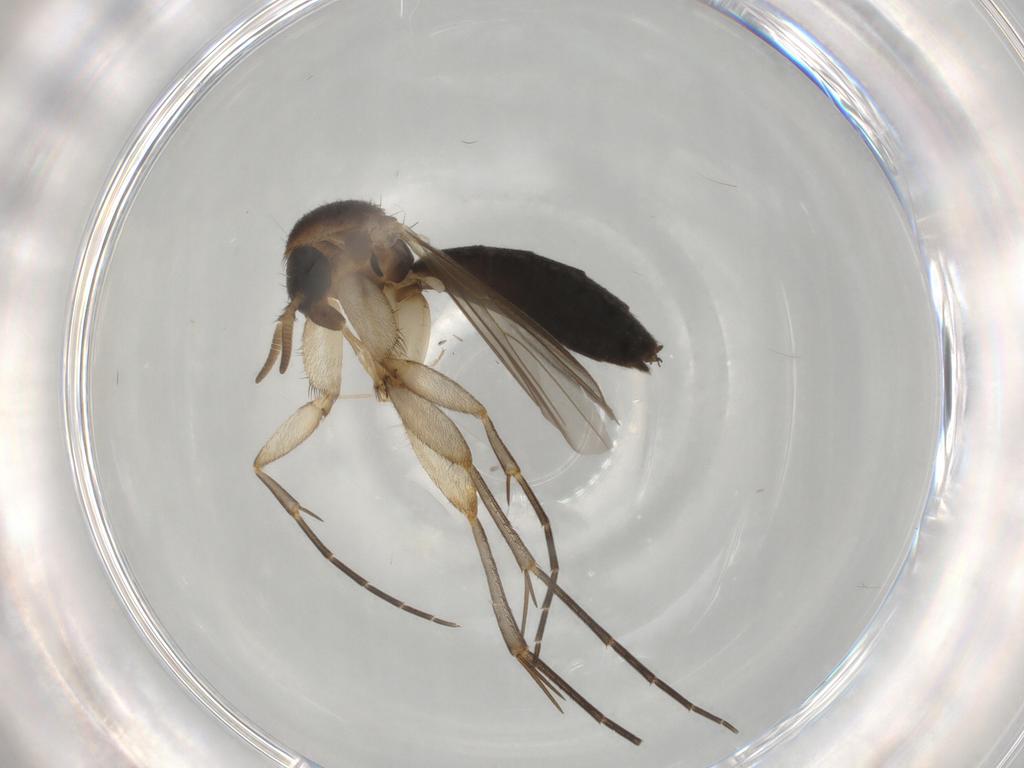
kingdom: Animalia
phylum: Arthropoda
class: Insecta
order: Diptera
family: Mycetophilidae
